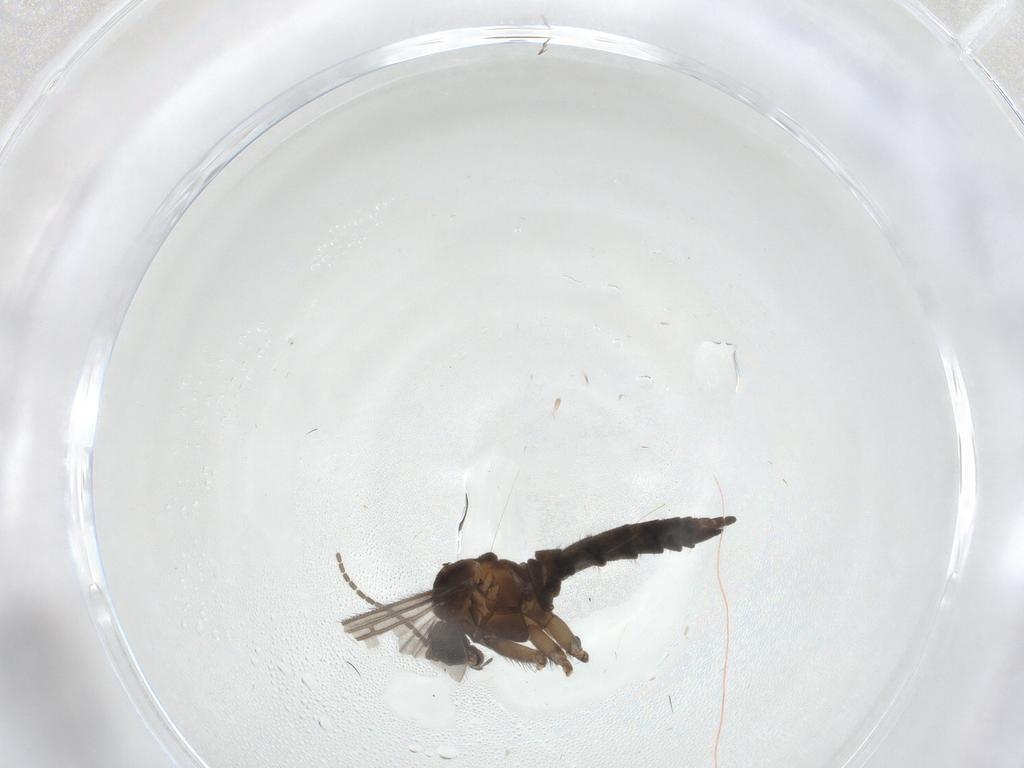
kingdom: Animalia
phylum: Arthropoda
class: Insecta
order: Diptera
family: Sciaridae
